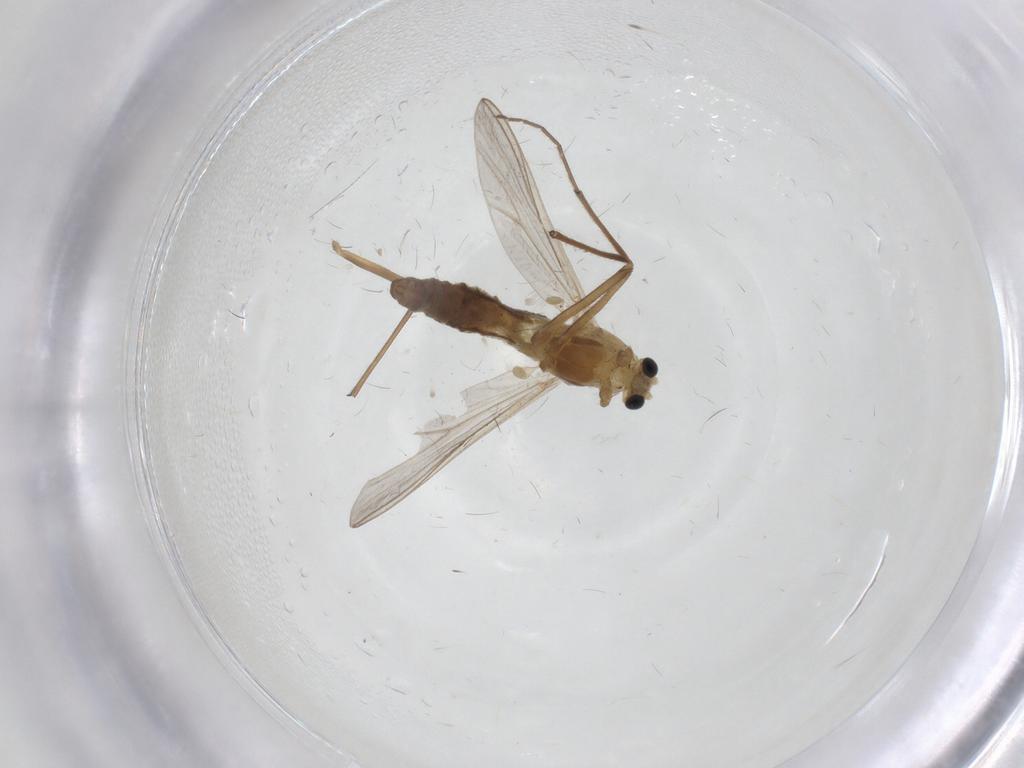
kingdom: Animalia
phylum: Arthropoda
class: Insecta
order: Diptera
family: Chironomidae
